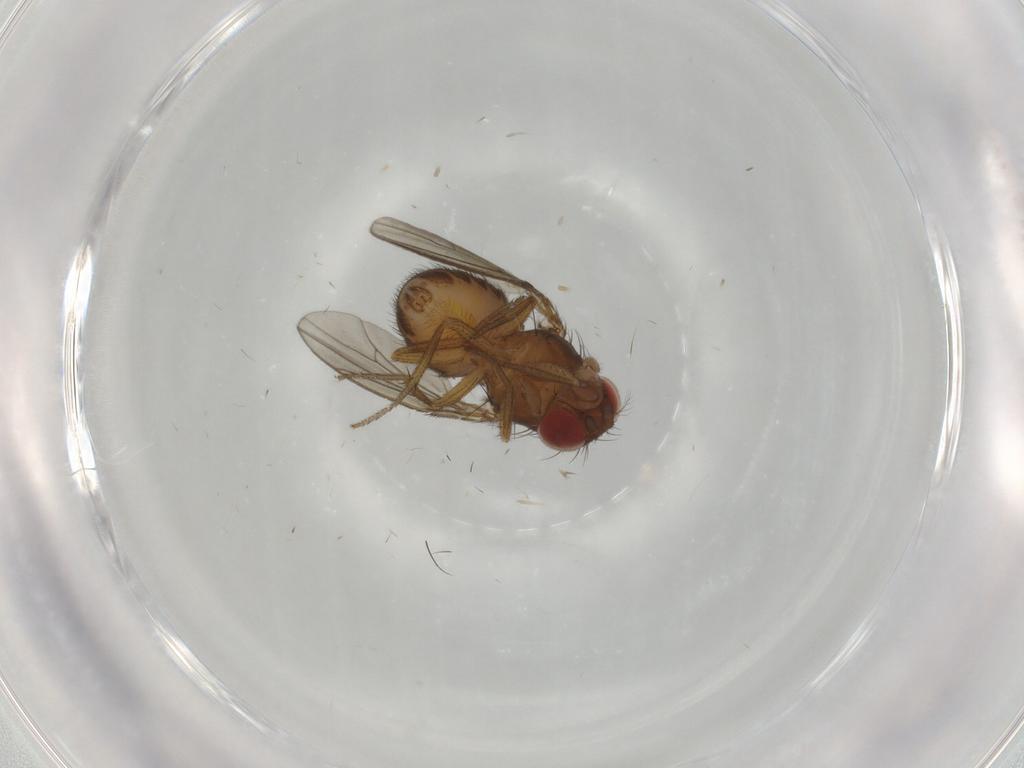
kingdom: Animalia
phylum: Arthropoda
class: Insecta
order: Diptera
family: Drosophilidae
